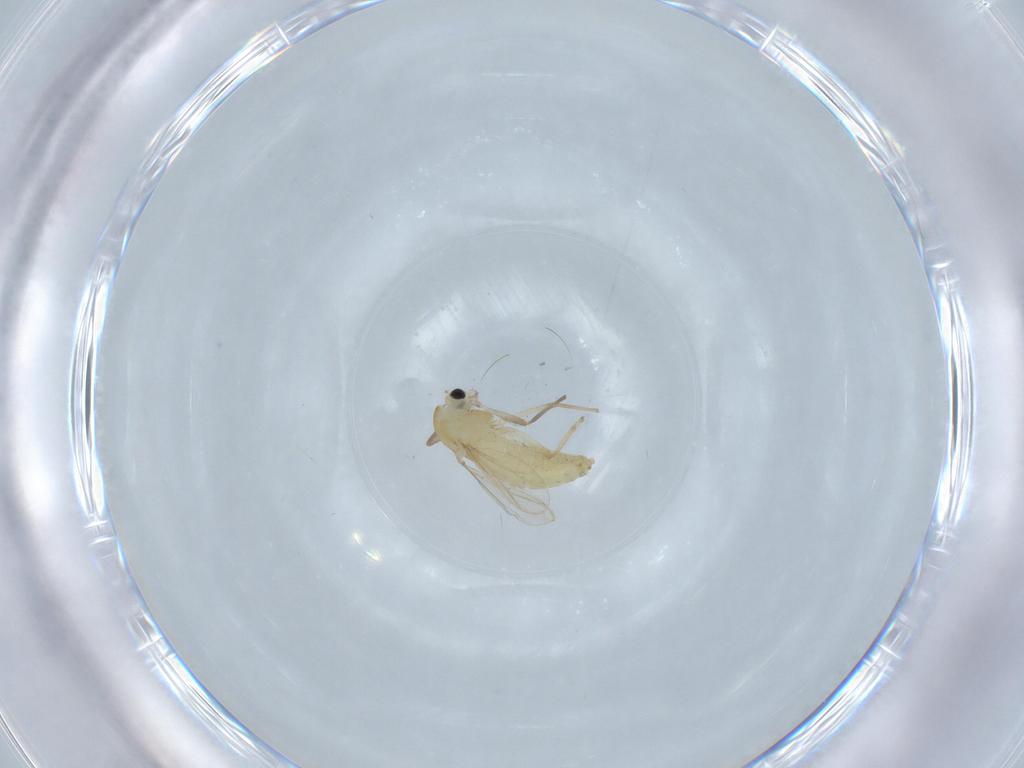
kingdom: Animalia
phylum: Arthropoda
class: Insecta
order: Diptera
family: Chironomidae
